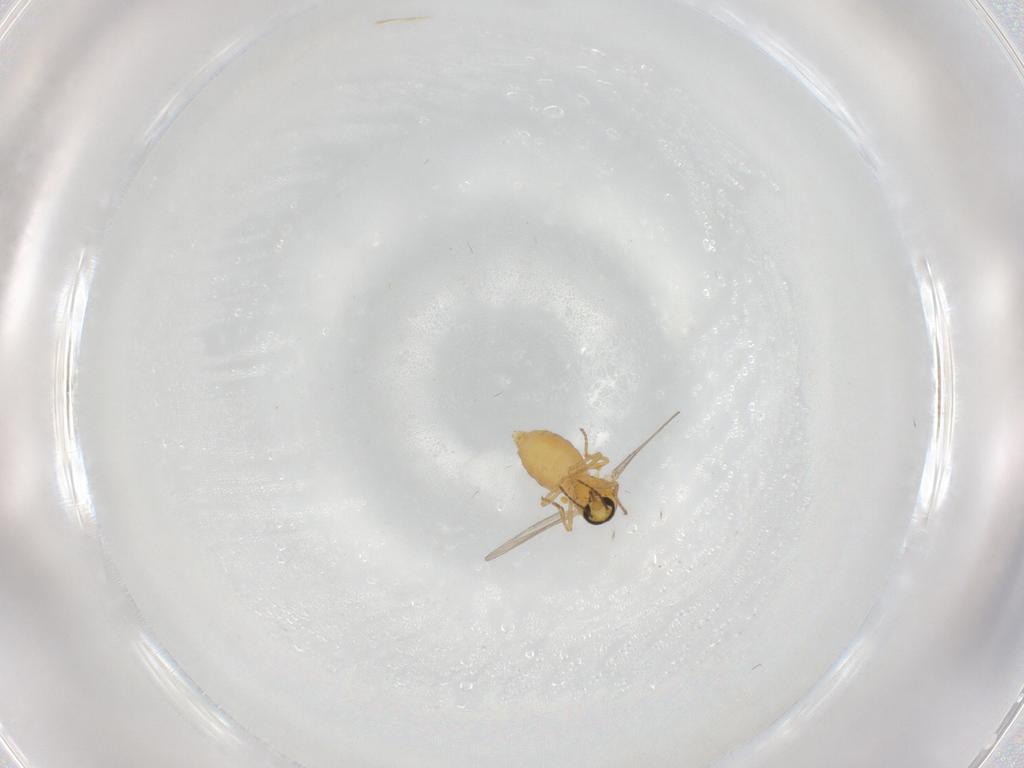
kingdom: Animalia
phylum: Arthropoda
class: Insecta
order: Diptera
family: Ceratopogonidae
